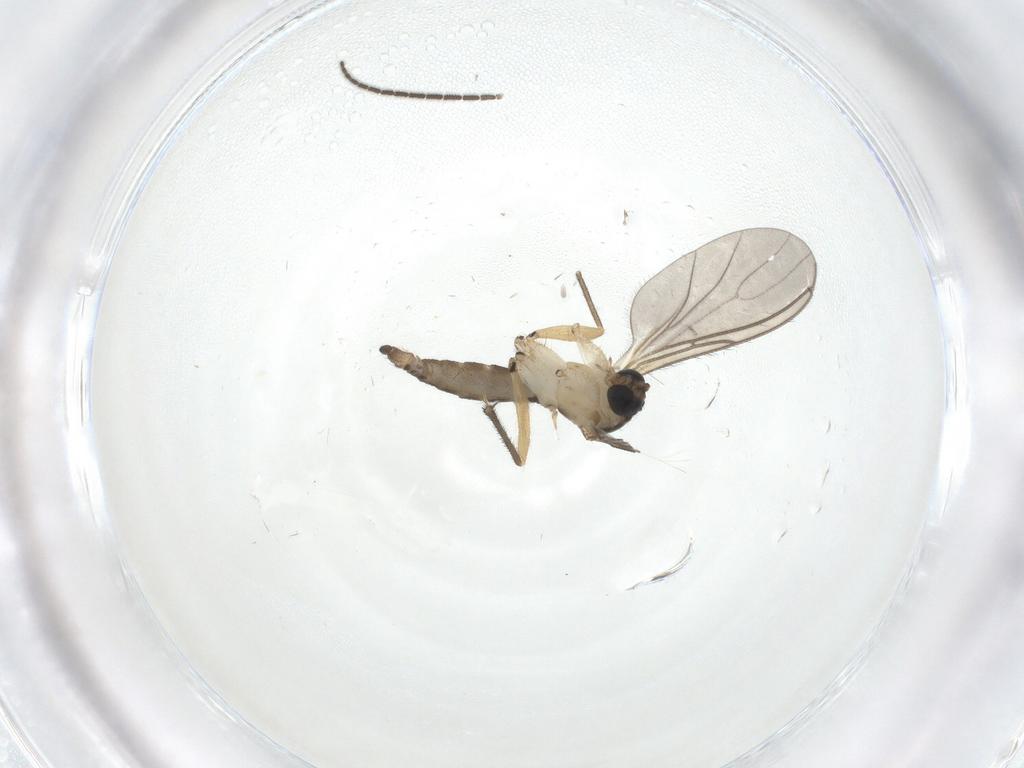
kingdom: Animalia
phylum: Arthropoda
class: Insecta
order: Diptera
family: Sciaridae
